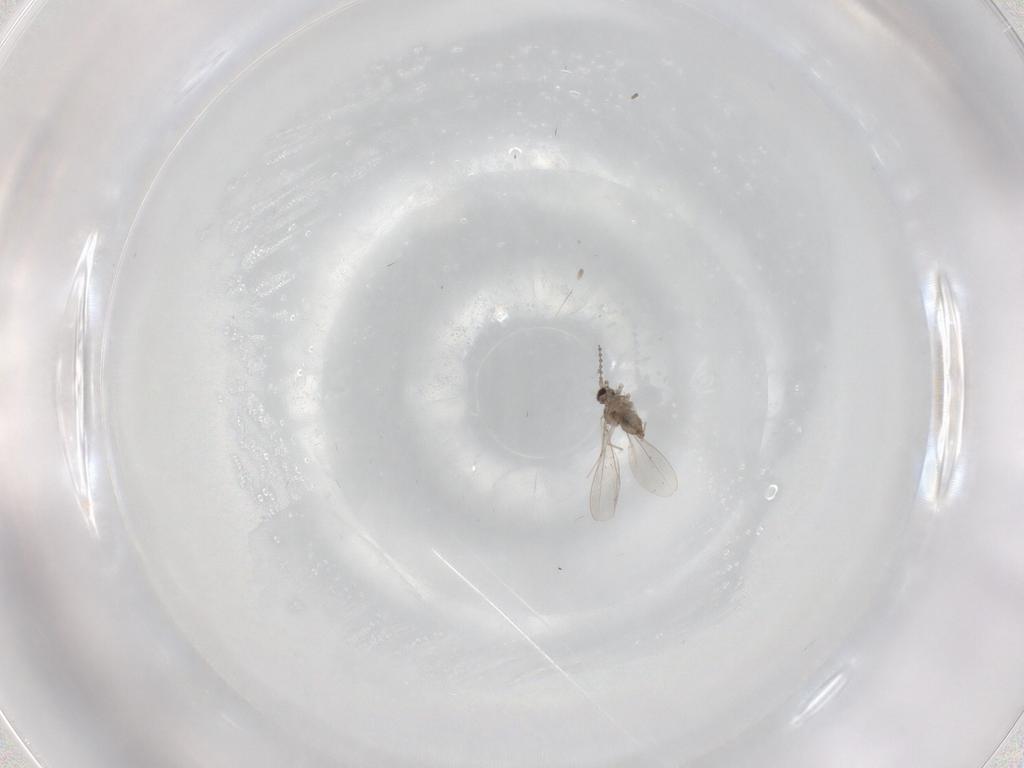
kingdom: Animalia
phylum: Arthropoda
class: Insecta
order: Diptera
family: Cecidomyiidae
